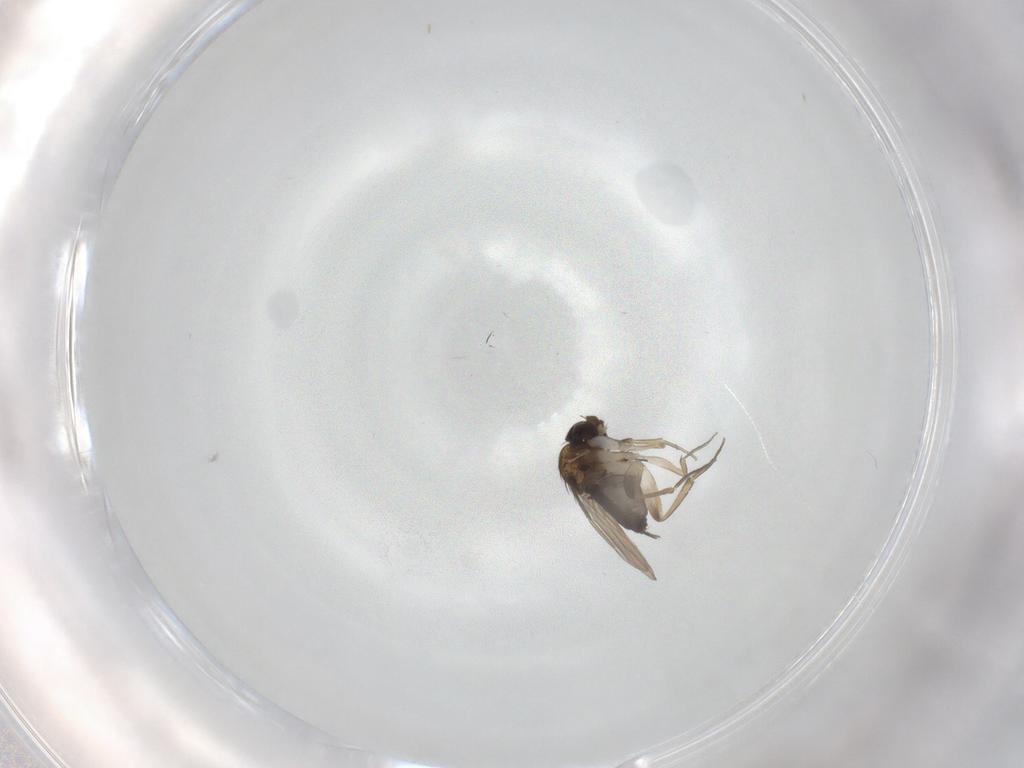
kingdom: Animalia
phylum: Arthropoda
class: Insecta
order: Diptera
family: Phoridae
